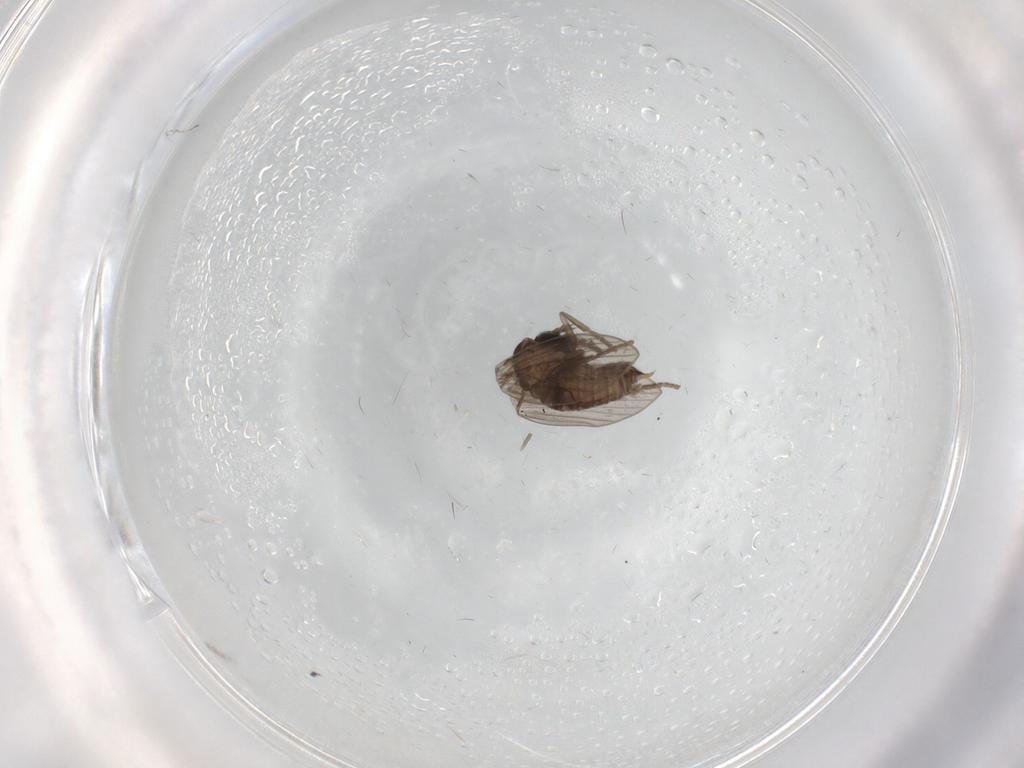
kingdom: Animalia
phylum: Arthropoda
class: Insecta
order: Diptera
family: Psychodidae
